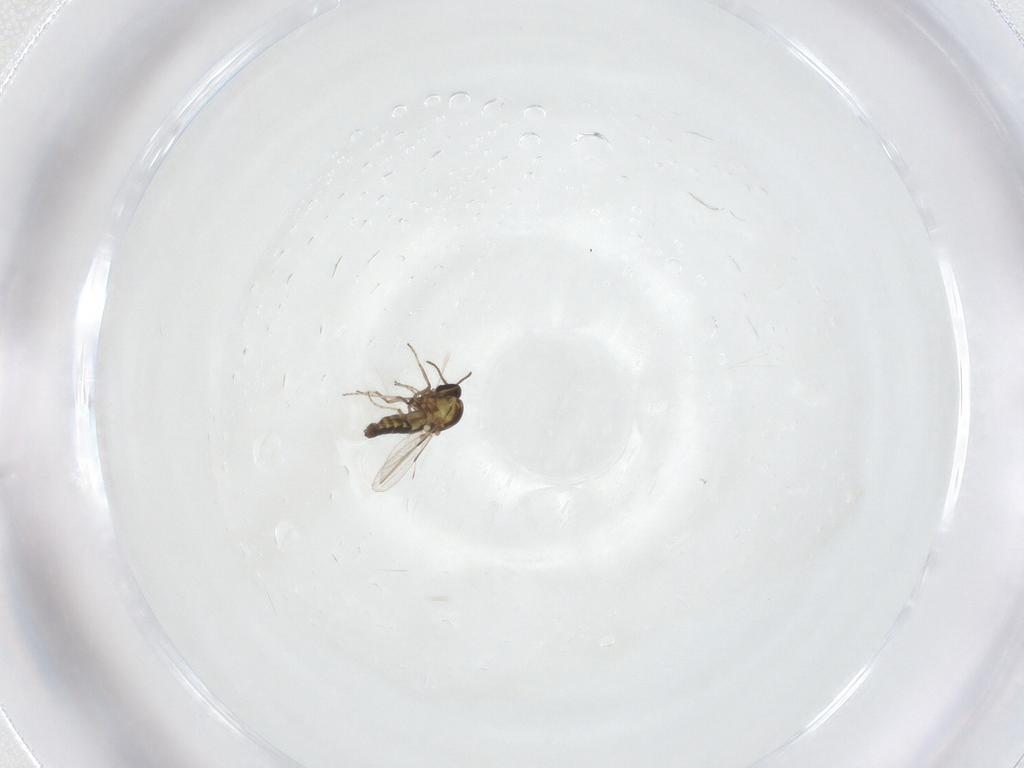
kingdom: Animalia
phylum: Arthropoda
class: Insecta
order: Diptera
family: Ceratopogonidae
